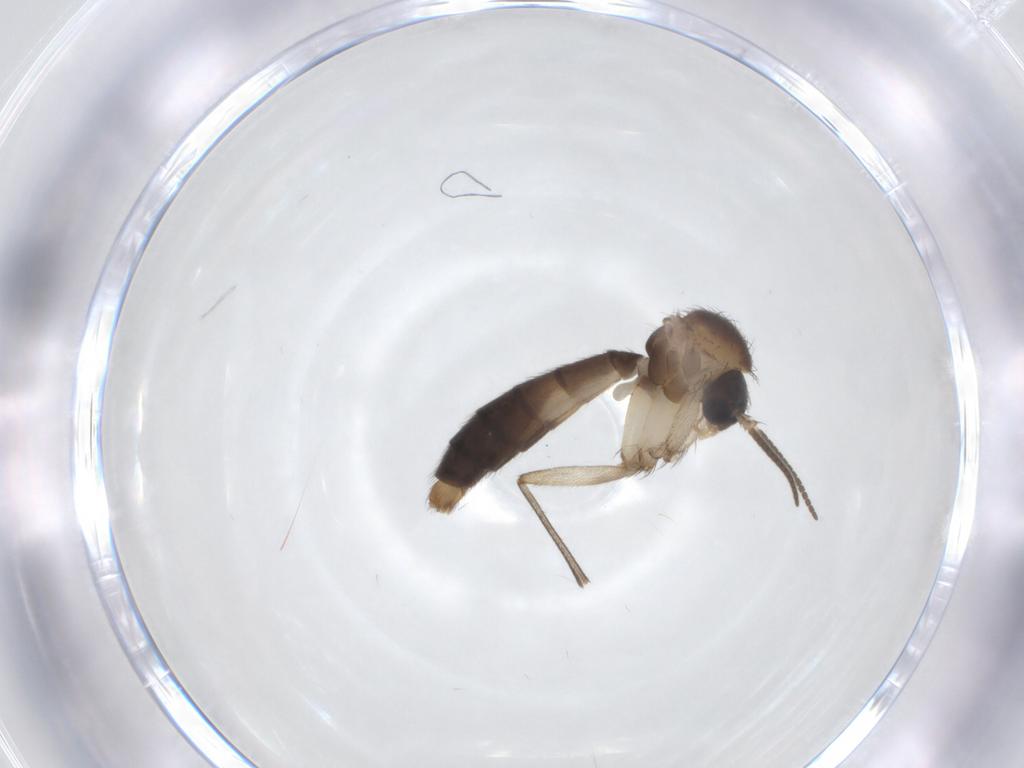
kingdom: Animalia
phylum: Arthropoda
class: Insecta
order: Diptera
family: Mycetophilidae
